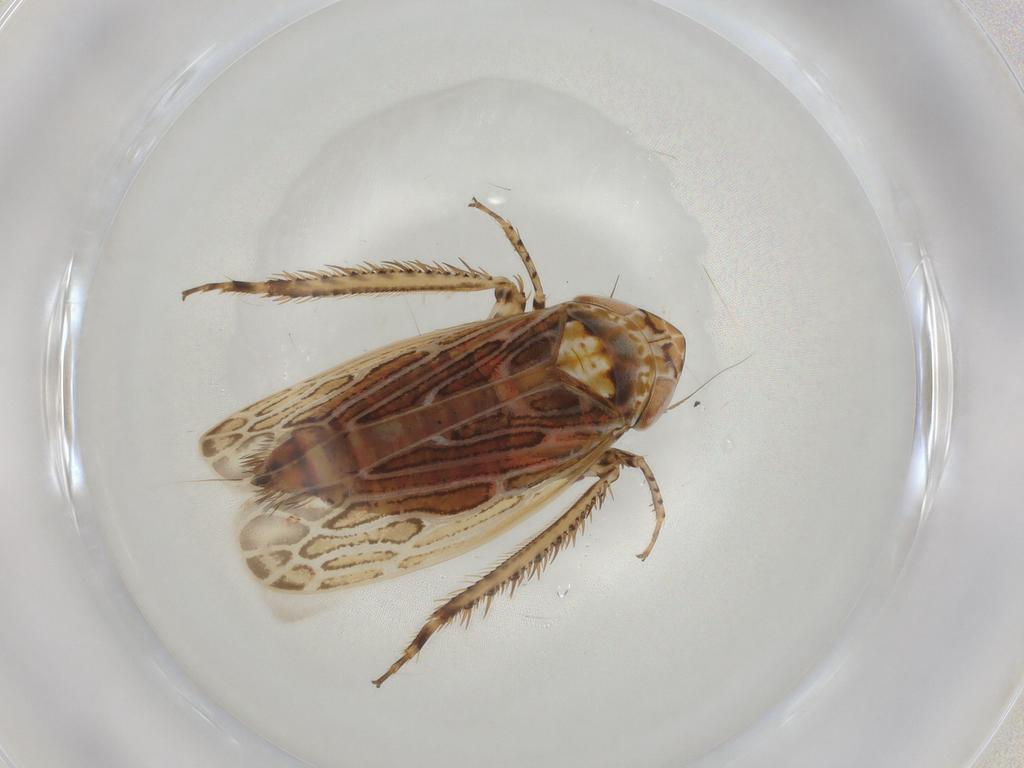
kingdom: Animalia
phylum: Arthropoda
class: Insecta
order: Hemiptera
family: Cicadellidae
